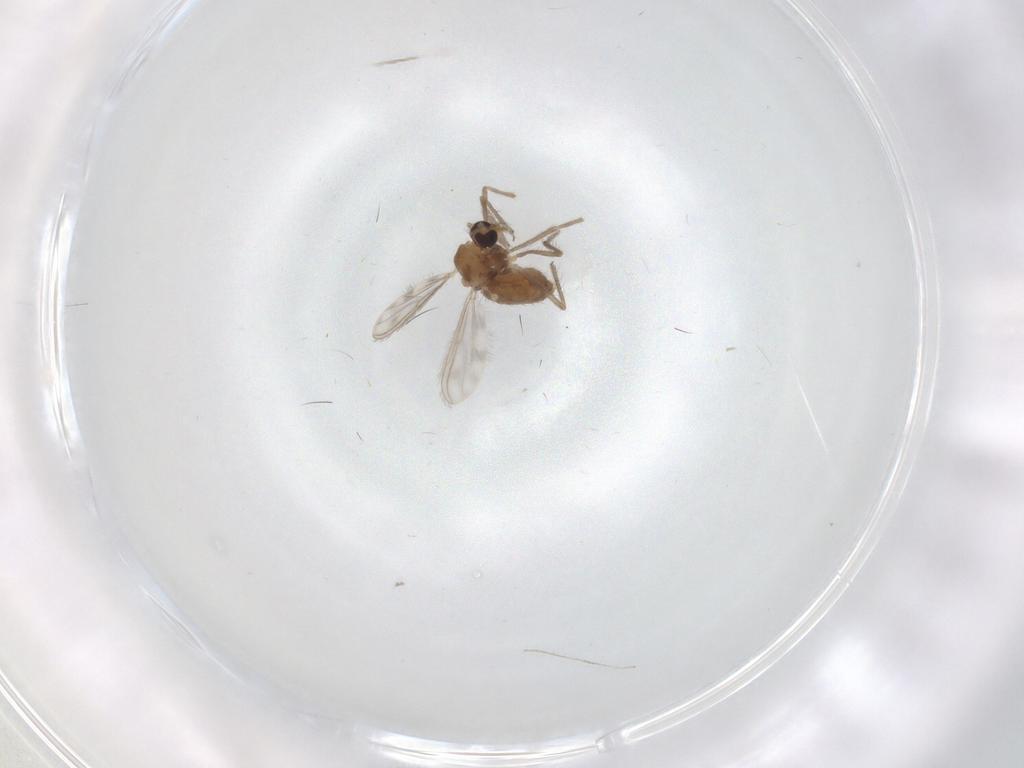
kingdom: Animalia
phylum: Arthropoda
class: Insecta
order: Diptera
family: Chironomidae
